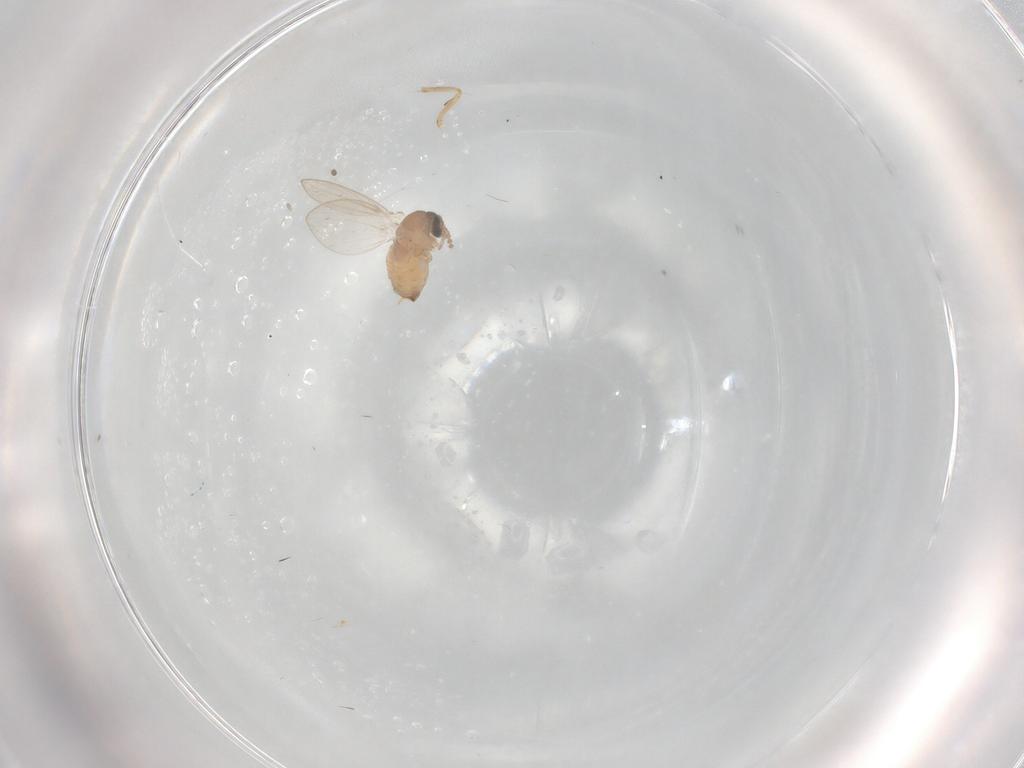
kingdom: Animalia
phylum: Arthropoda
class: Insecta
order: Diptera
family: Psychodidae
